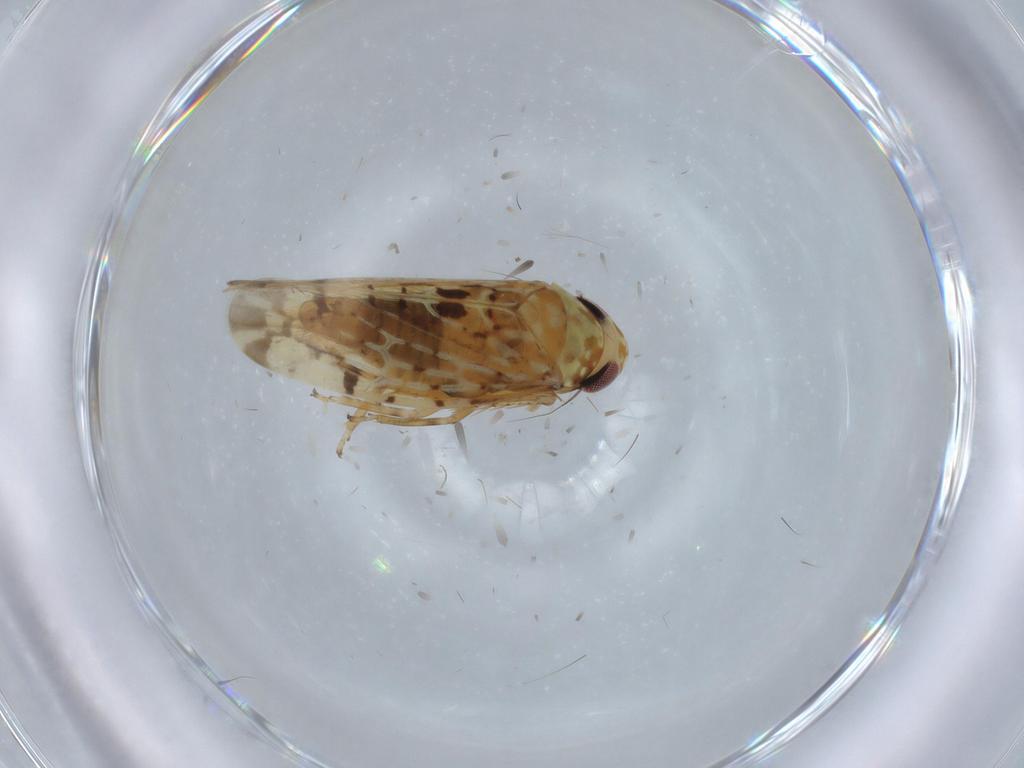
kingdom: Animalia
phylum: Arthropoda
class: Insecta
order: Hemiptera
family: Cicadellidae
